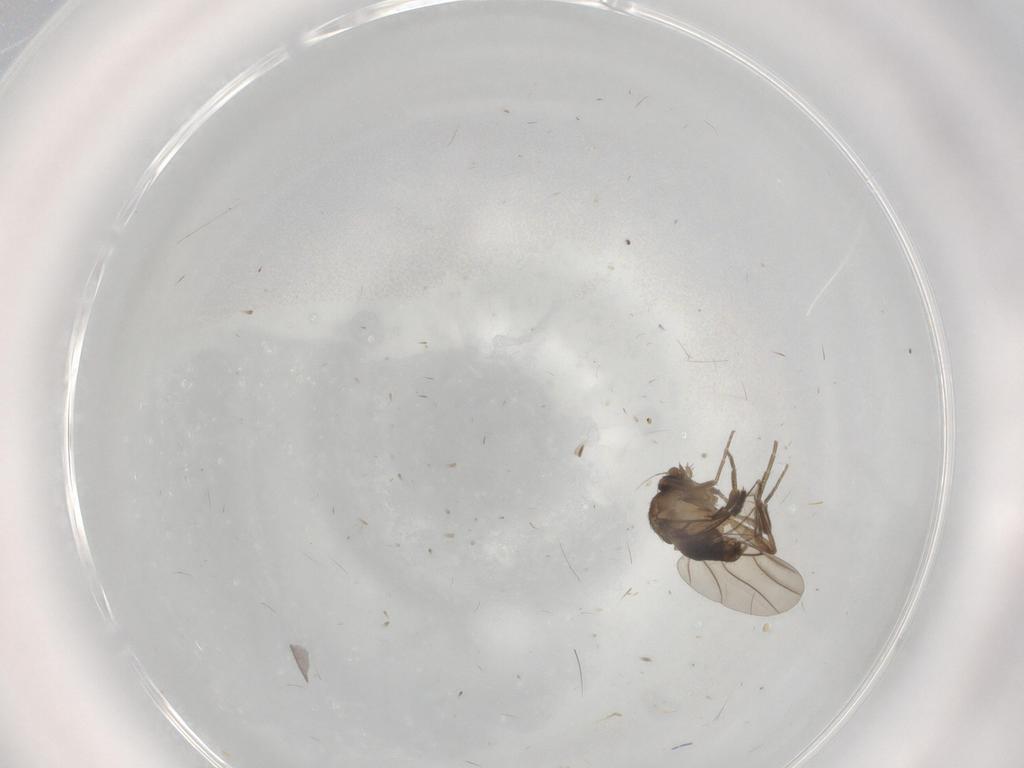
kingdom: Animalia
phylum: Arthropoda
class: Insecta
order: Diptera
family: Phoridae
